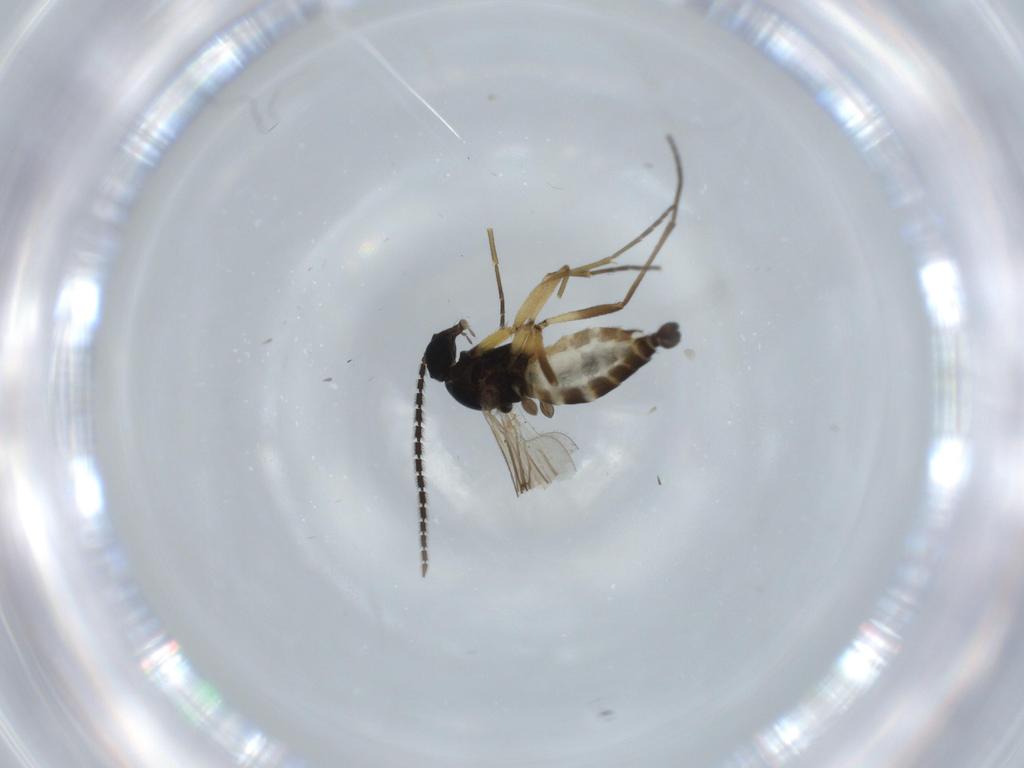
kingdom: Animalia
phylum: Arthropoda
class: Insecta
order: Diptera
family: Sciaridae
